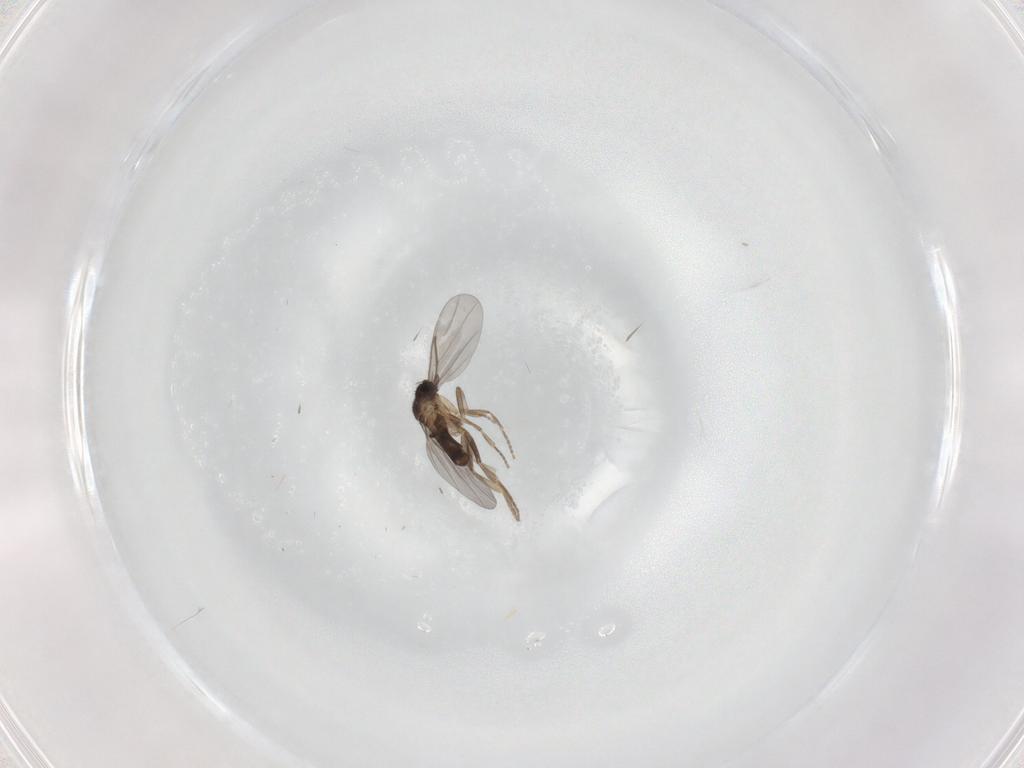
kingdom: Animalia
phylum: Arthropoda
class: Insecta
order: Diptera
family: Ceratopogonidae
